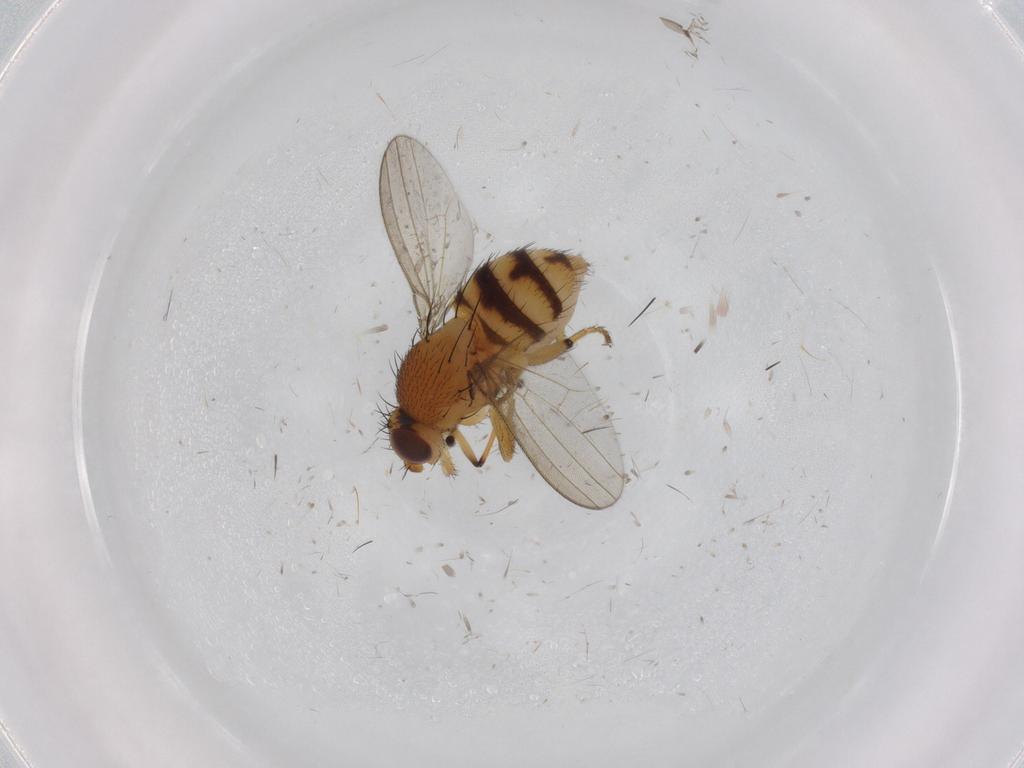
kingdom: Animalia
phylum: Arthropoda
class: Insecta
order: Diptera
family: Milichiidae
